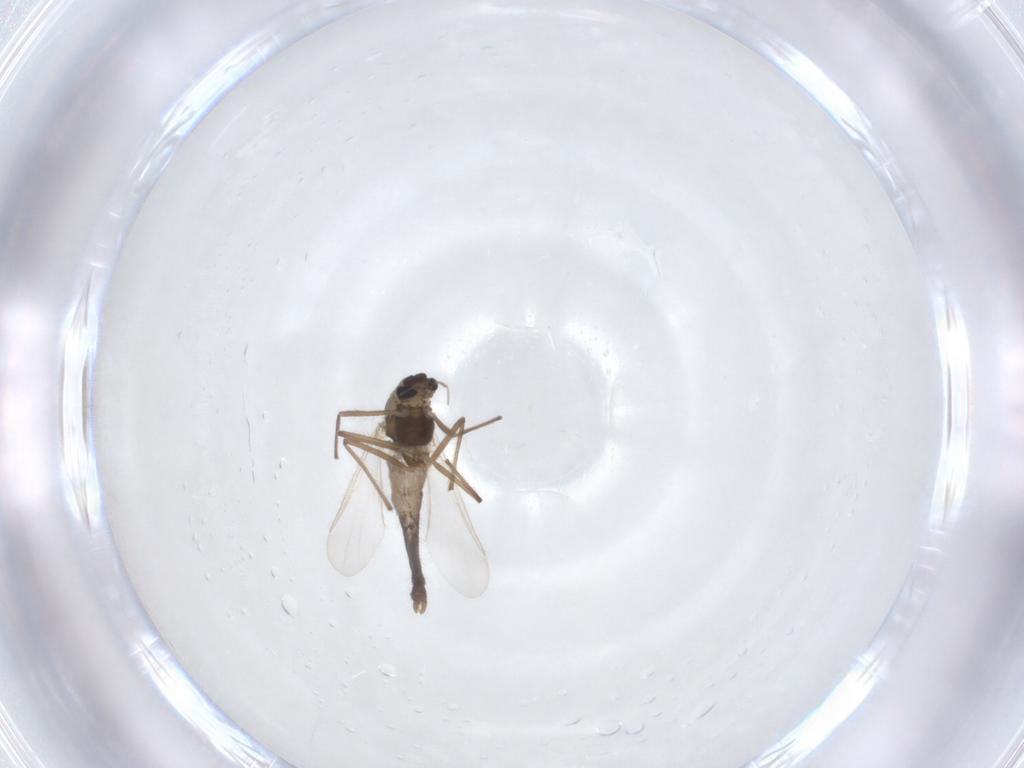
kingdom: Animalia
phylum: Arthropoda
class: Insecta
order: Diptera
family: Chironomidae
